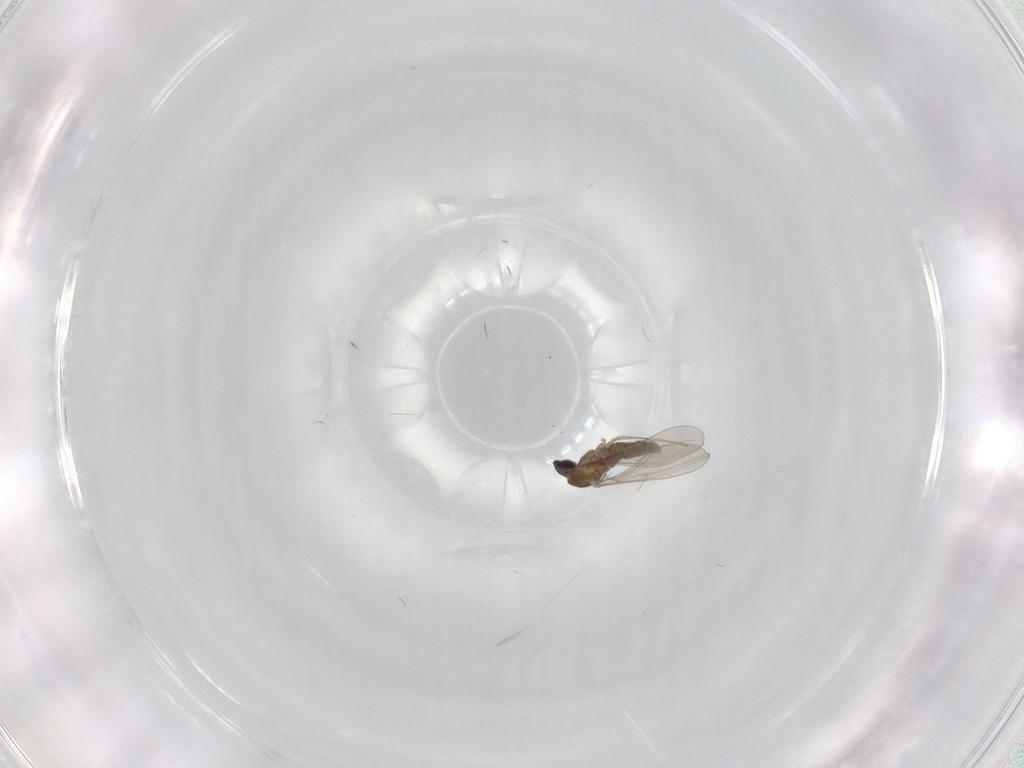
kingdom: Animalia
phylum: Arthropoda
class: Insecta
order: Diptera
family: Cecidomyiidae
